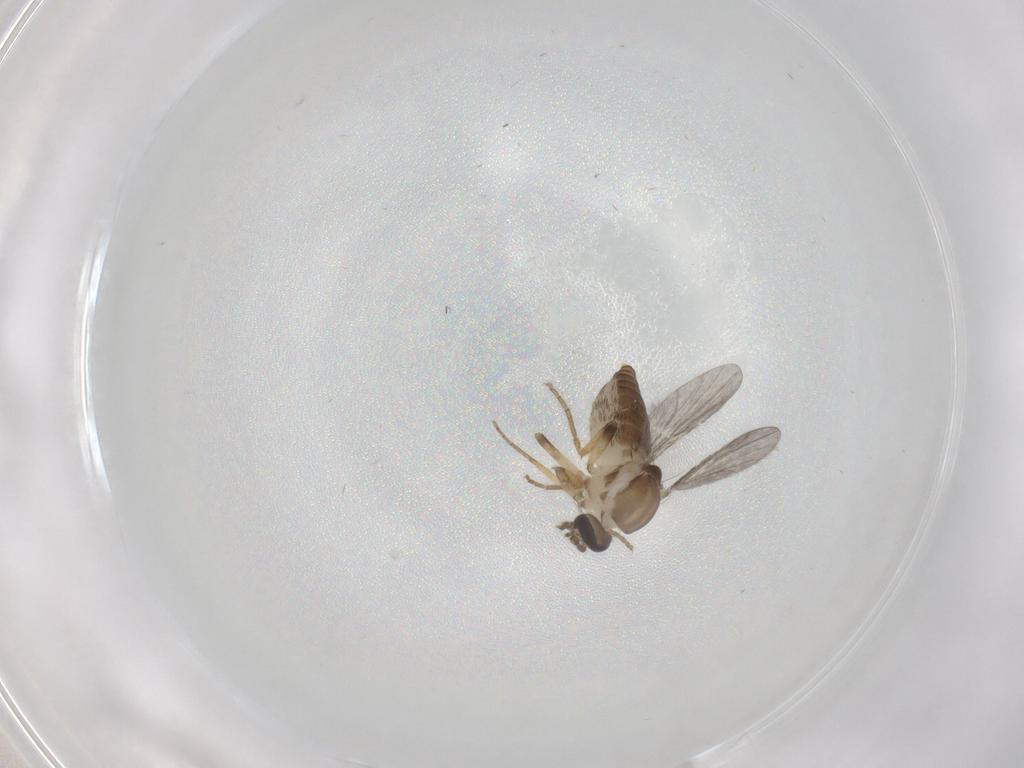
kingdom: Animalia
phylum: Arthropoda
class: Insecta
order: Diptera
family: Ceratopogonidae
